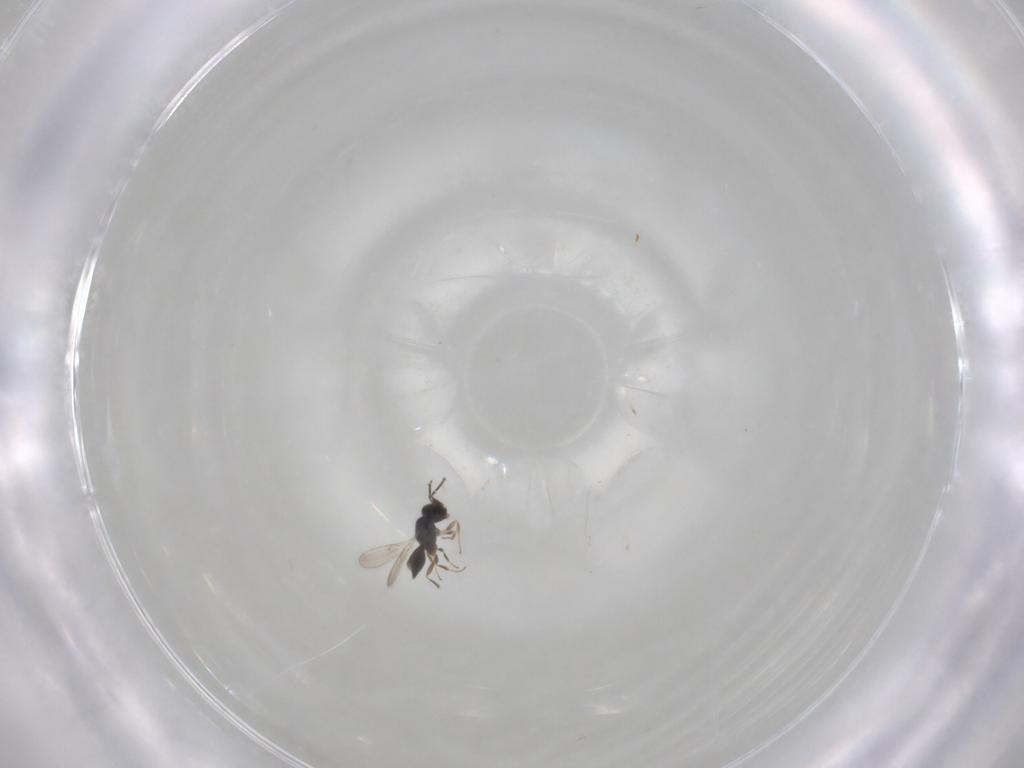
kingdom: Animalia
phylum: Arthropoda
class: Insecta
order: Hymenoptera
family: Scelionidae
